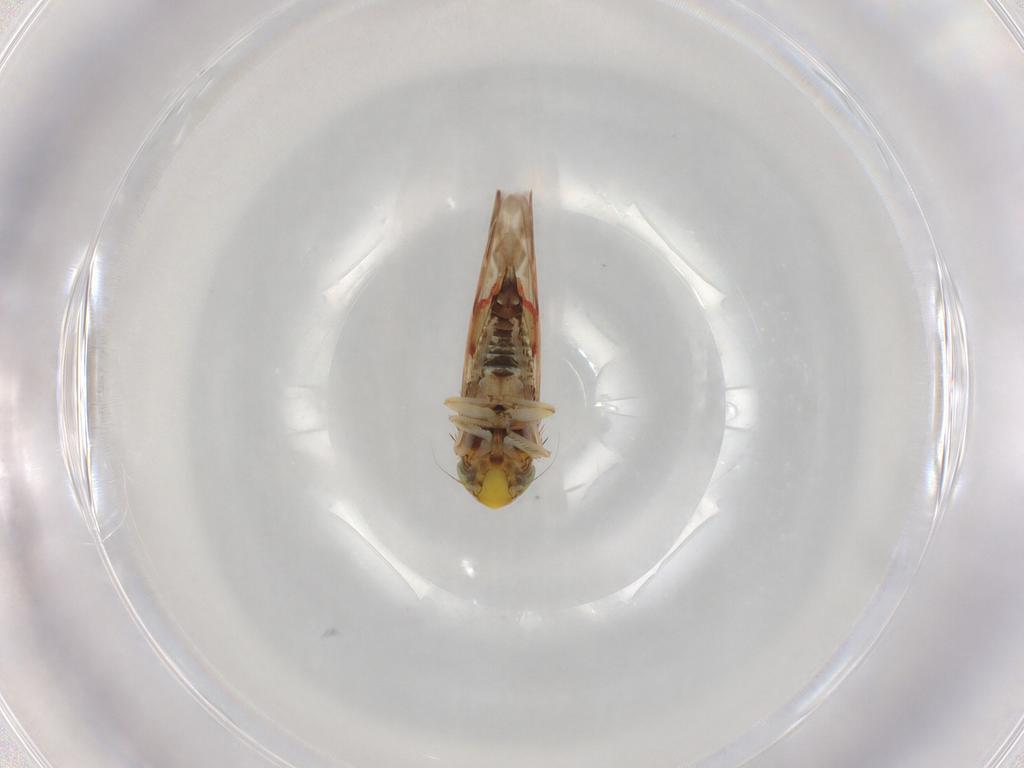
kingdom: Animalia
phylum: Arthropoda
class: Insecta
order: Hemiptera
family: Cicadellidae
